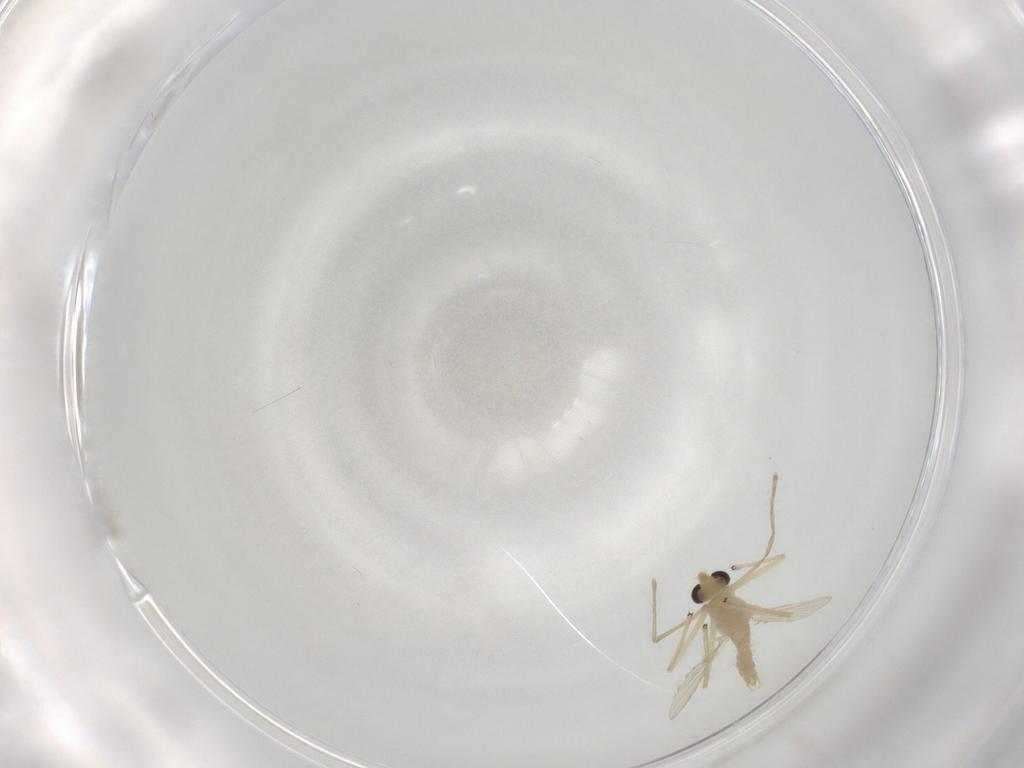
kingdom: Animalia
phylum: Arthropoda
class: Insecta
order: Diptera
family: Chironomidae
